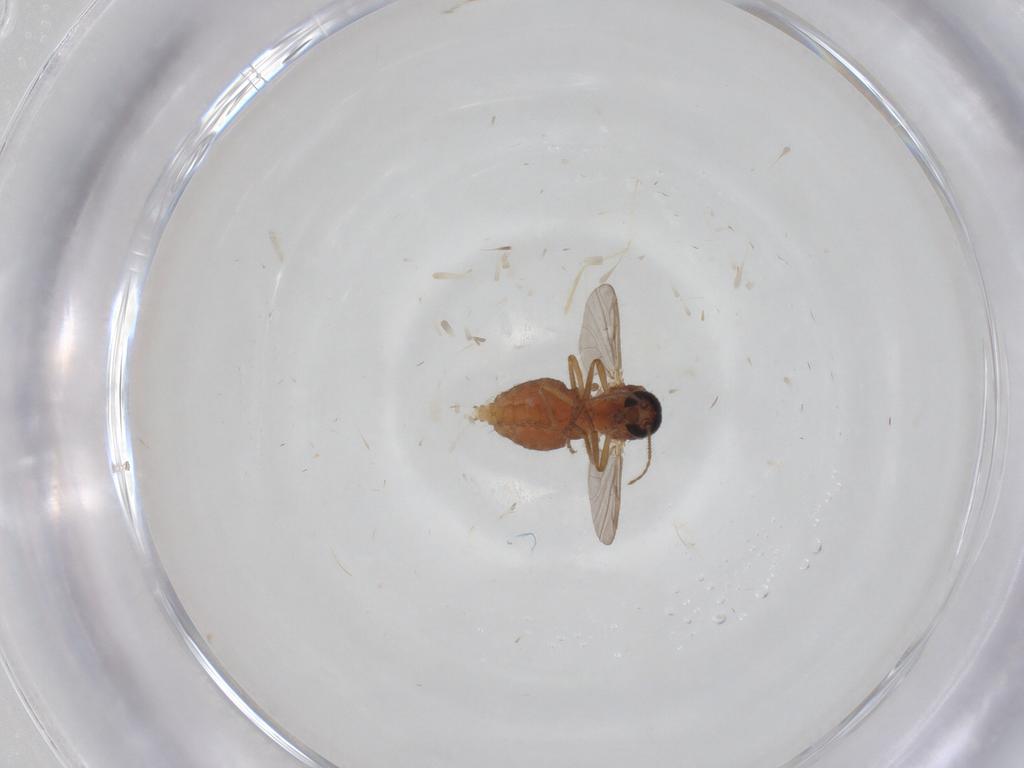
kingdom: Animalia
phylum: Arthropoda
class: Insecta
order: Diptera
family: Ceratopogonidae
